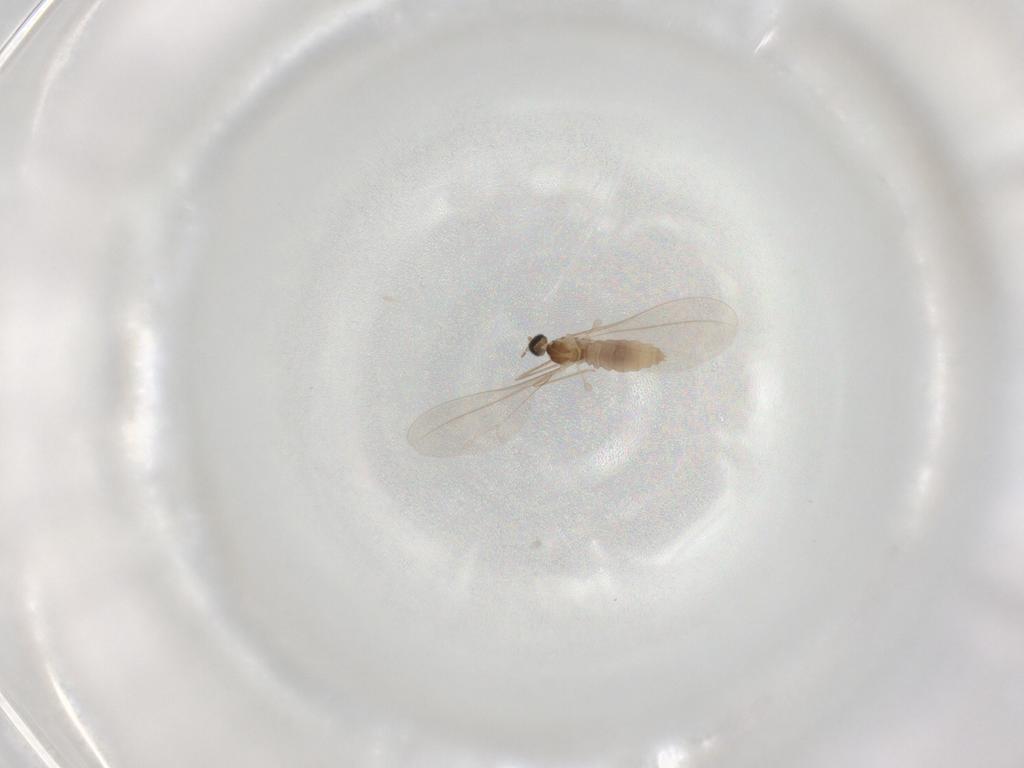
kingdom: Animalia
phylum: Arthropoda
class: Insecta
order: Diptera
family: Cecidomyiidae
